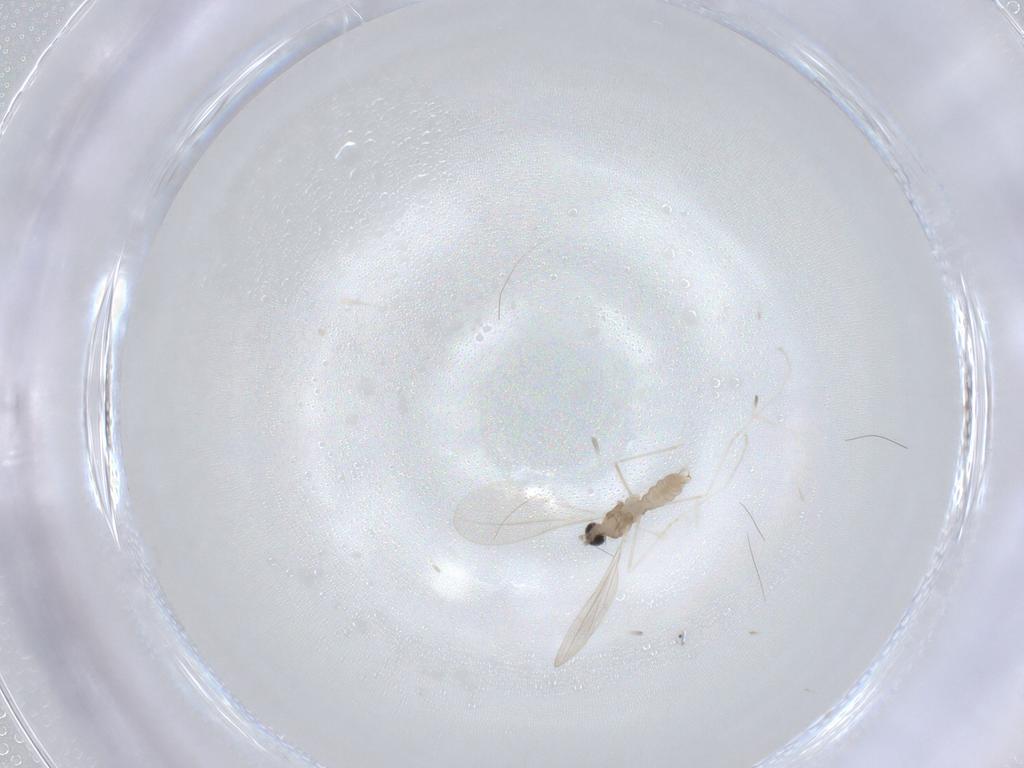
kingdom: Animalia
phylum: Arthropoda
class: Insecta
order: Diptera
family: Cecidomyiidae
